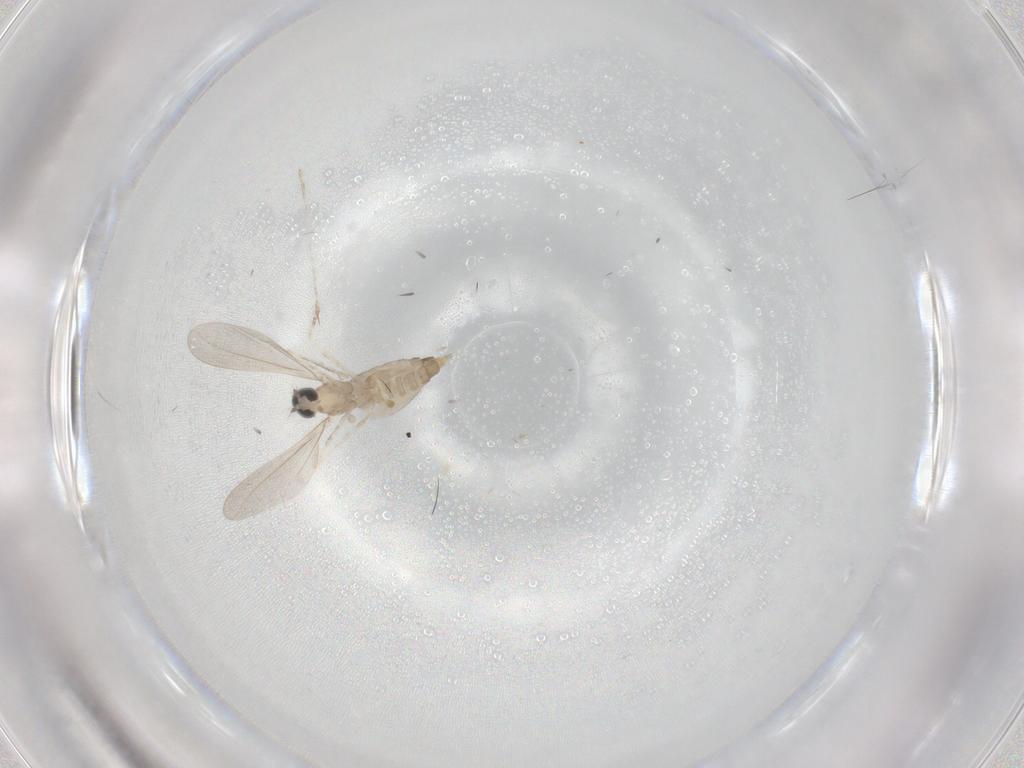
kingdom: Animalia
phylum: Arthropoda
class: Insecta
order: Diptera
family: Cecidomyiidae
